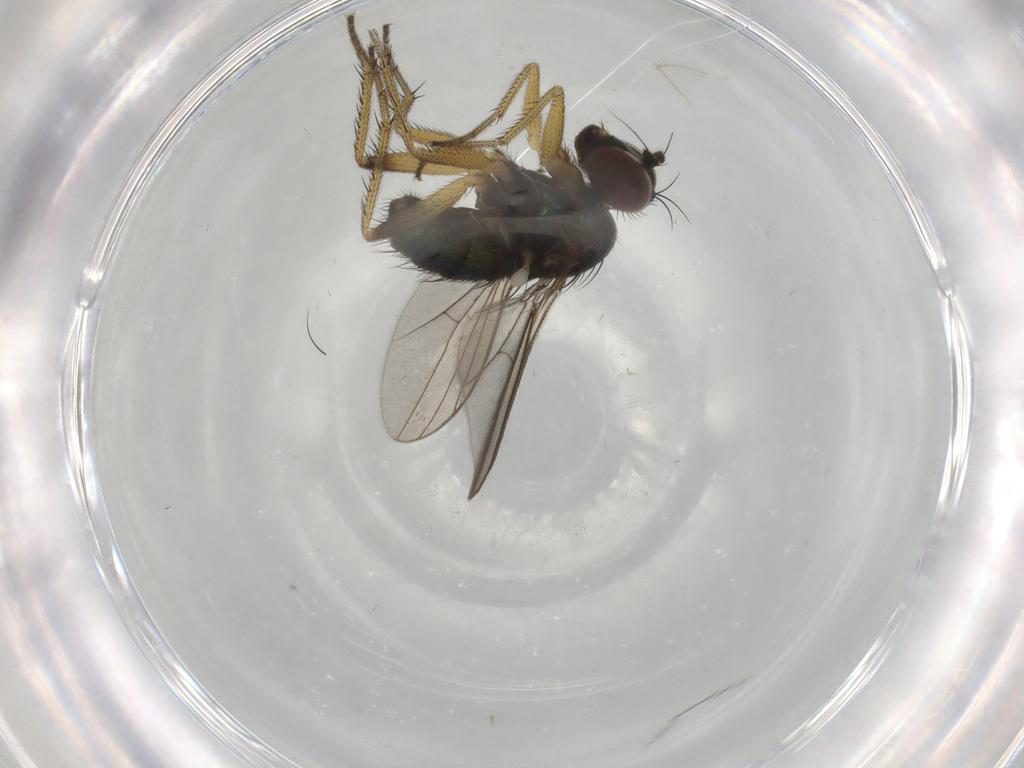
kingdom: Animalia
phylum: Arthropoda
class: Insecta
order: Diptera
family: Dolichopodidae
